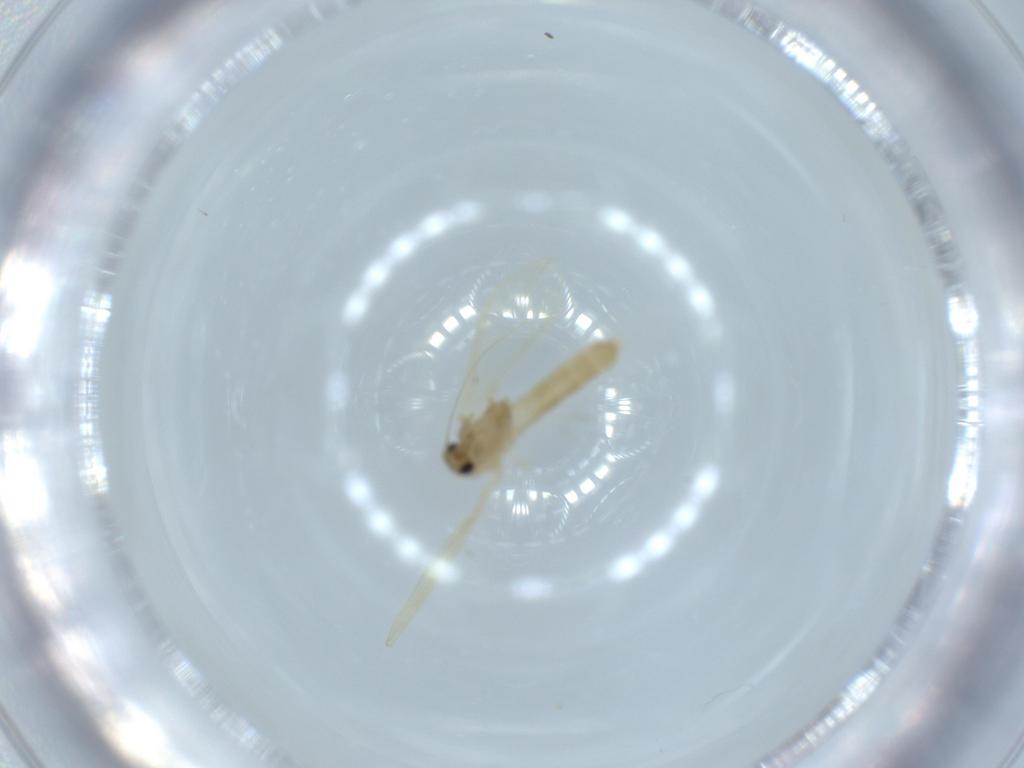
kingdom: Animalia
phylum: Arthropoda
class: Insecta
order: Diptera
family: Psychodidae
